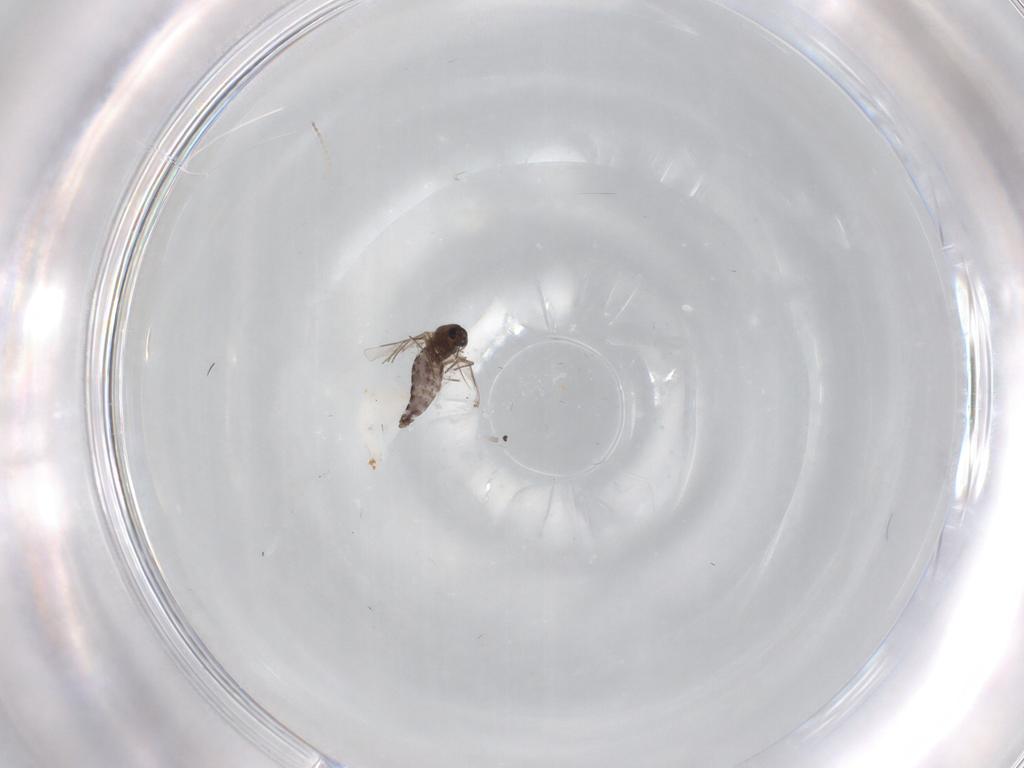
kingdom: Animalia
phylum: Arthropoda
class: Insecta
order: Diptera
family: Chironomidae
